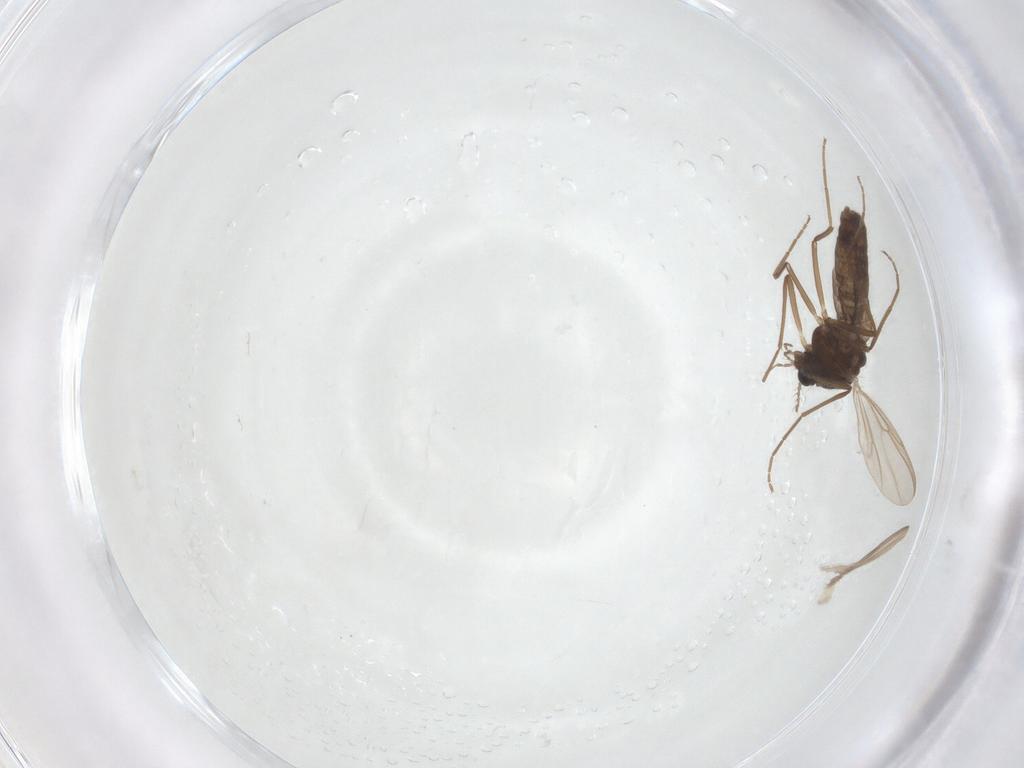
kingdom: Animalia
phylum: Arthropoda
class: Insecta
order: Diptera
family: Chironomidae
